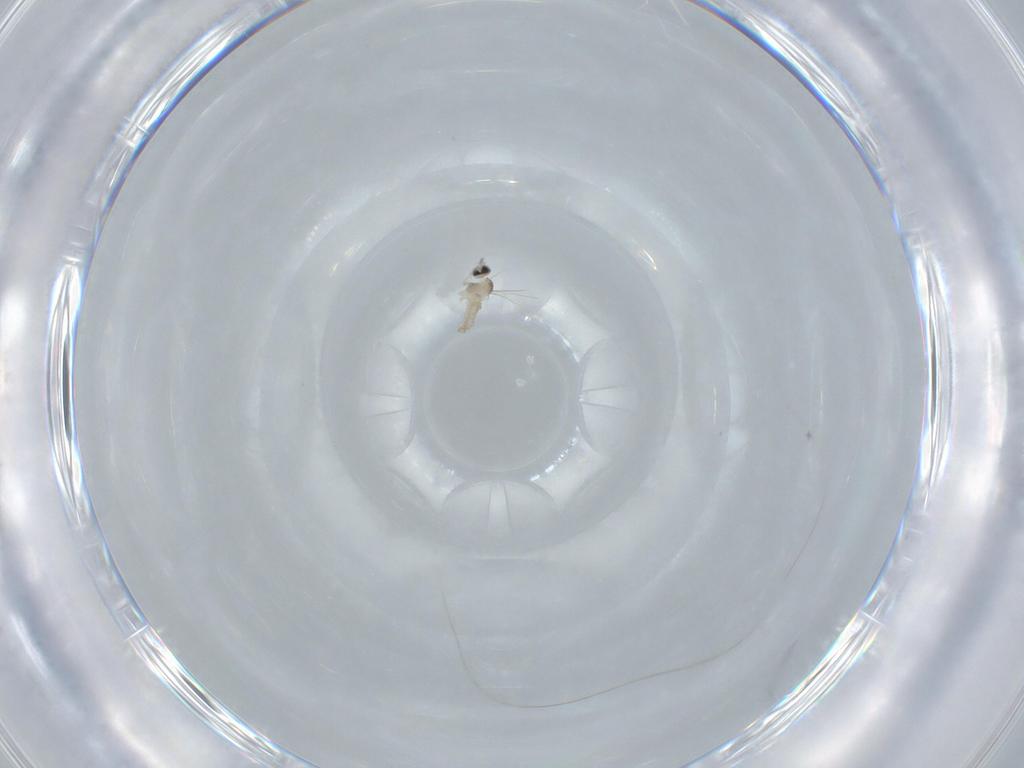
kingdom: Animalia
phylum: Arthropoda
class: Insecta
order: Diptera
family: Cecidomyiidae
